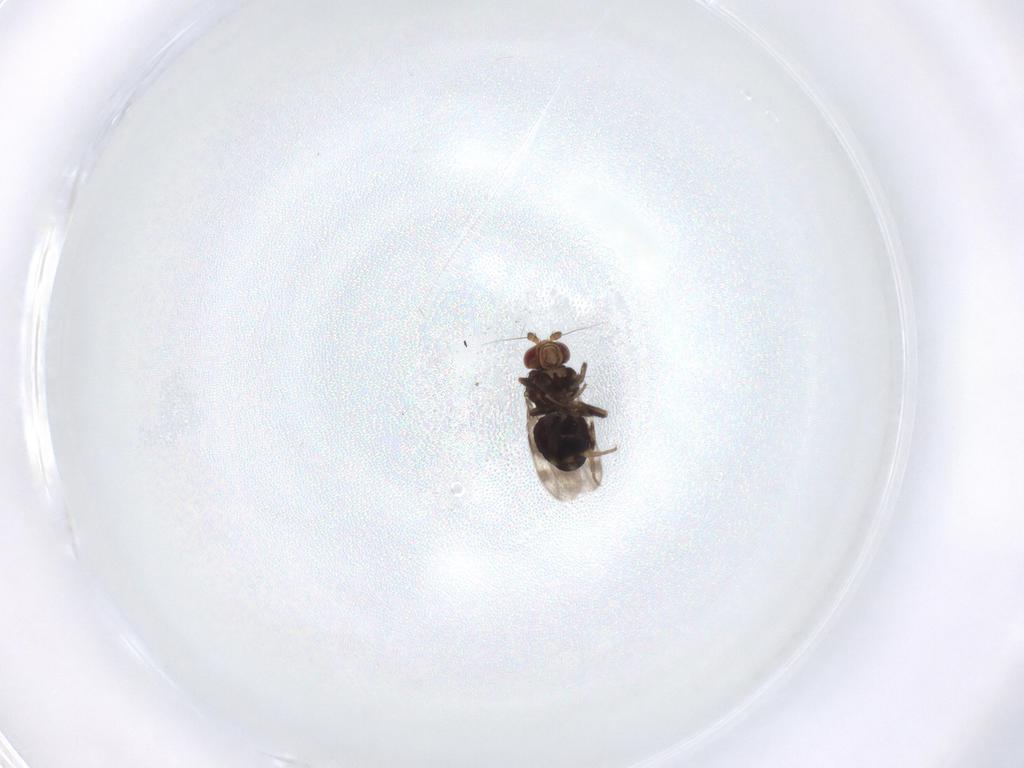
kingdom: Animalia
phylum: Arthropoda
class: Insecta
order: Diptera
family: Sphaeroceridae
